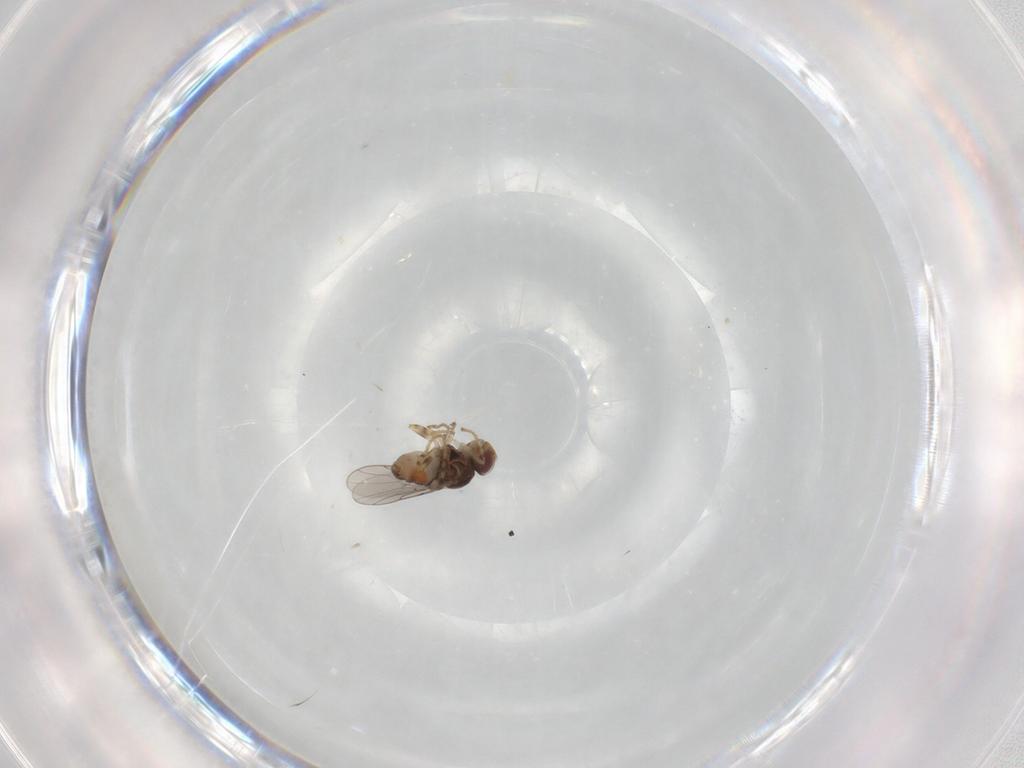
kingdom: Animalia
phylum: Arthropoda
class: Insecta
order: Diptera
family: Chloropidae
